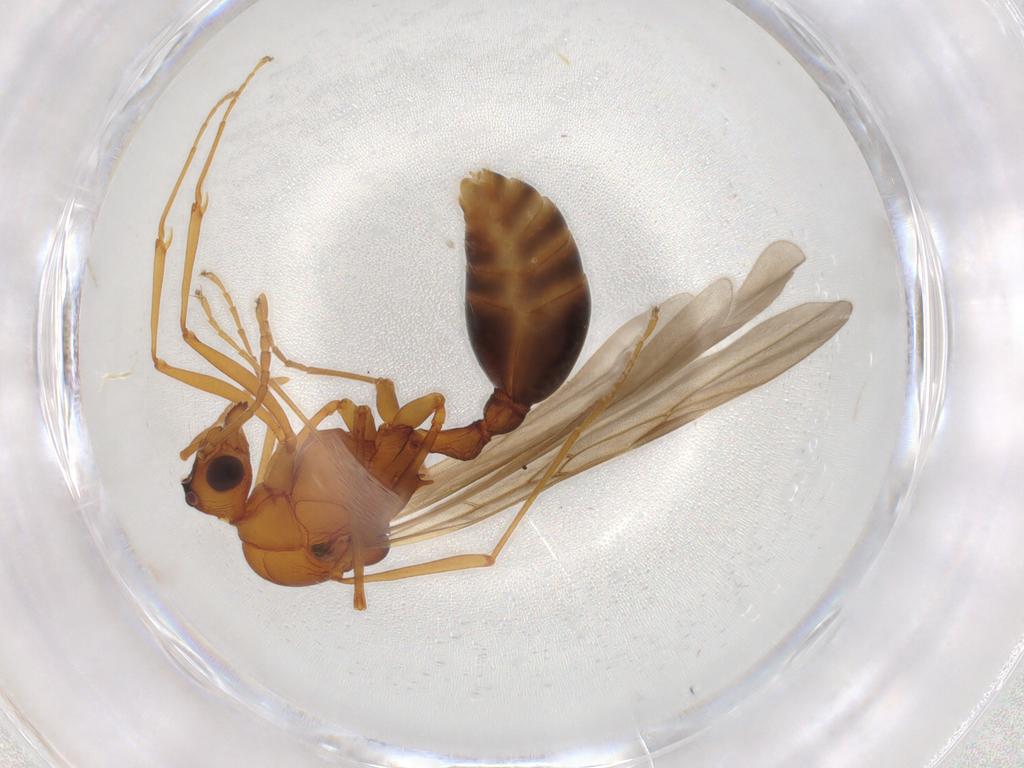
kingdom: Animalia
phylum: Arthropoda
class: Insecta
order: Hymenoptera
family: Formicidae
